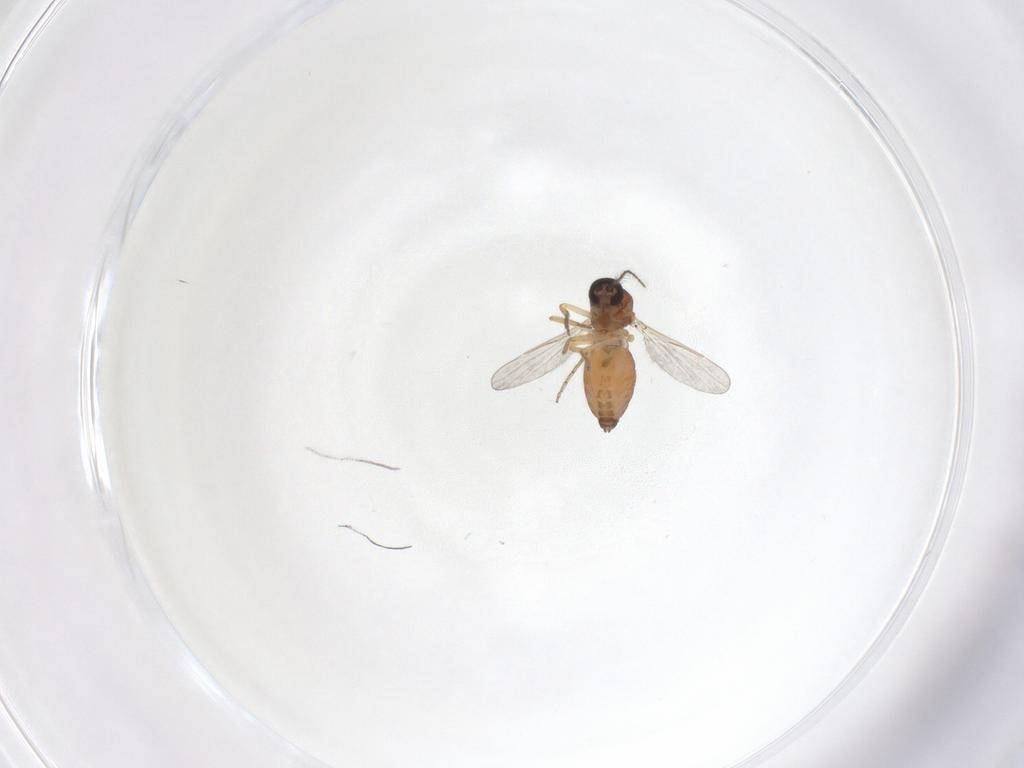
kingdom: Animalia
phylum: Arthropoda
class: Insecta
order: Diptera
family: Ceratopogonidae
